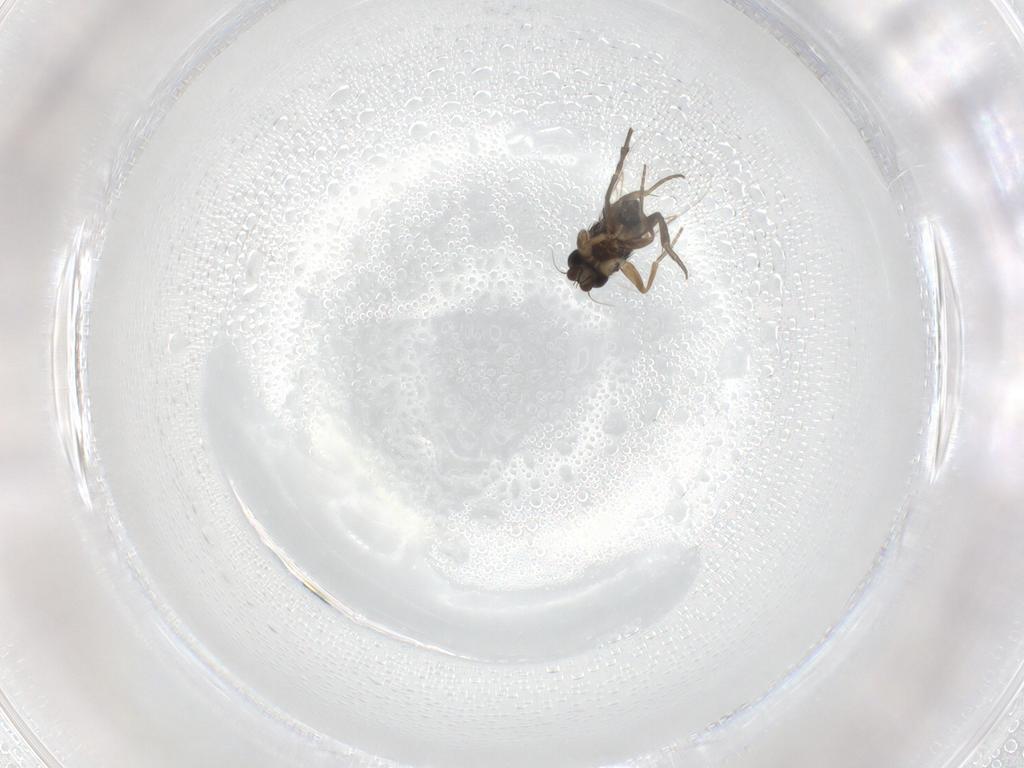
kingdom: Animalia
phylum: Arthropoda
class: Insecta
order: Diptera
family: Phoridae
